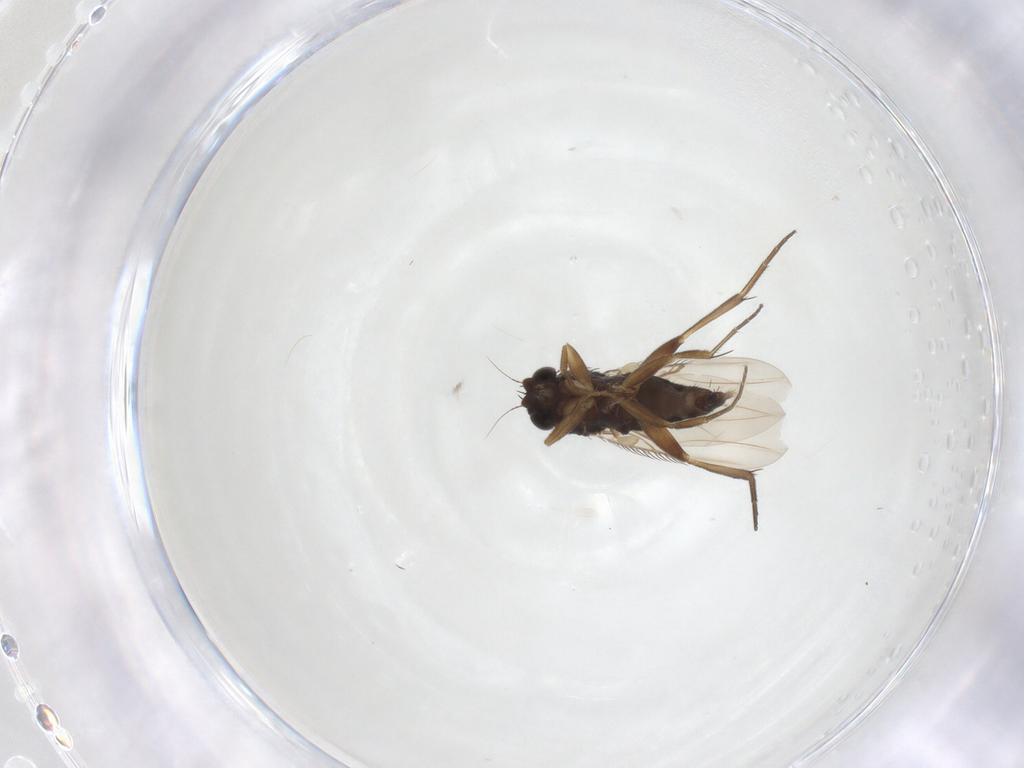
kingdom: Animalia
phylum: Arthropoda
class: Insecta
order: Diptera
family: Phoridae
